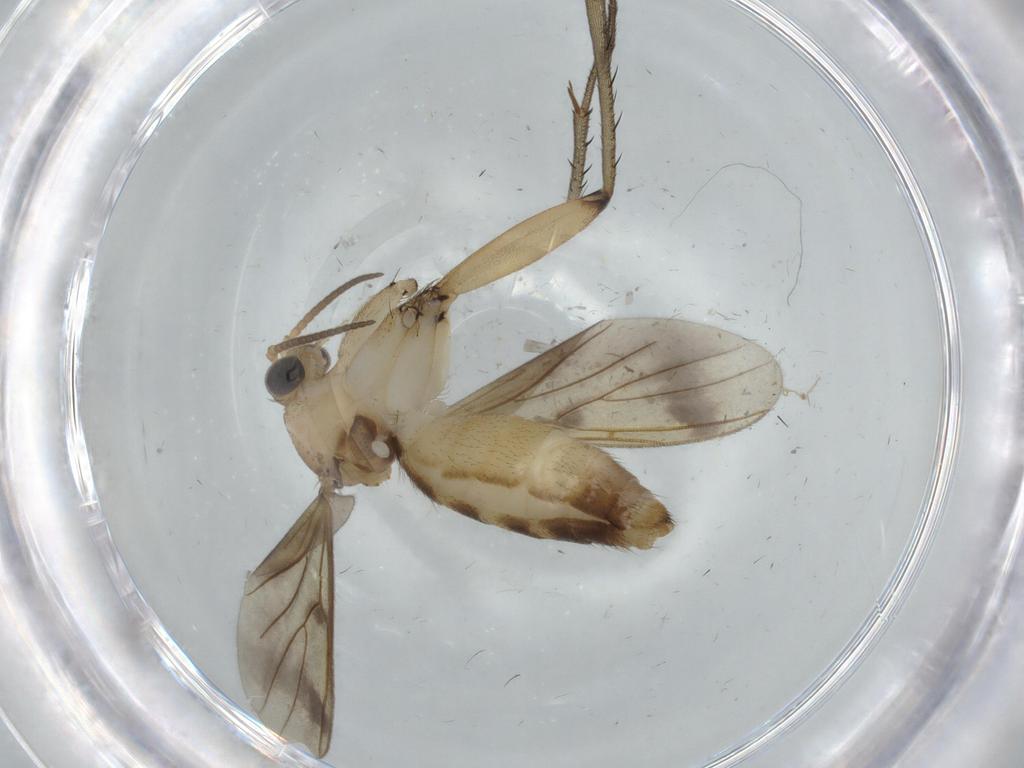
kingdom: Animalia
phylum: Arthropoda
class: Insecta
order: Diptera
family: Mycetophilidae
